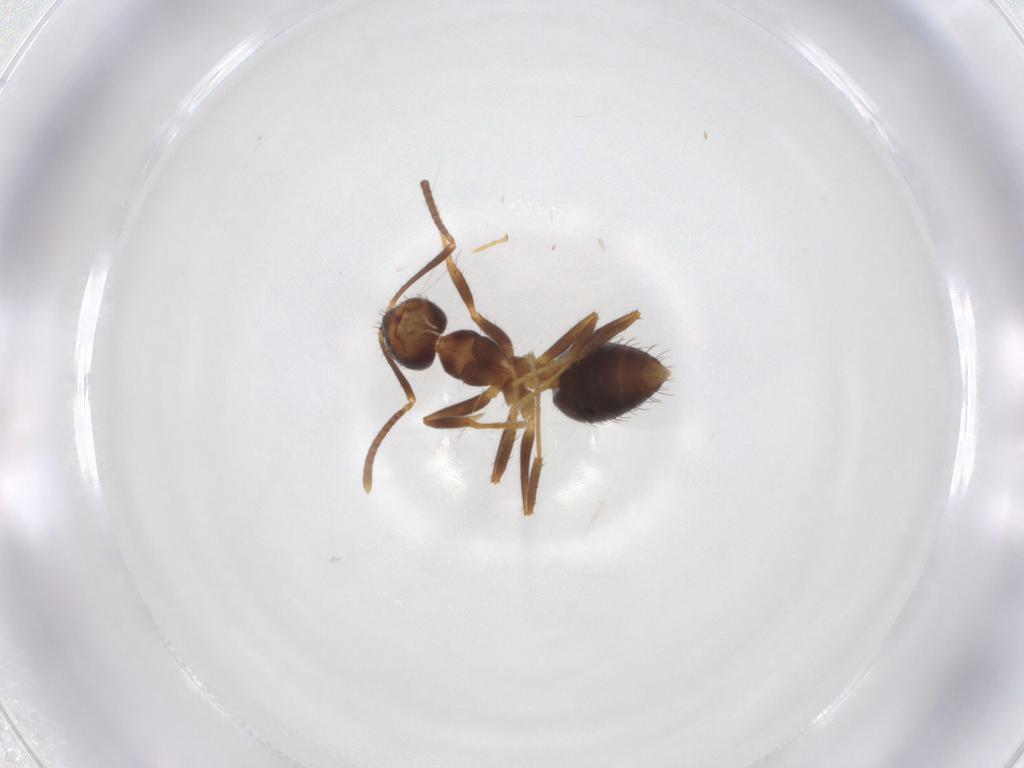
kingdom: Animalia
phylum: Arthropoda
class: Insecta
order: Hymenoptera
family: Formicidae
